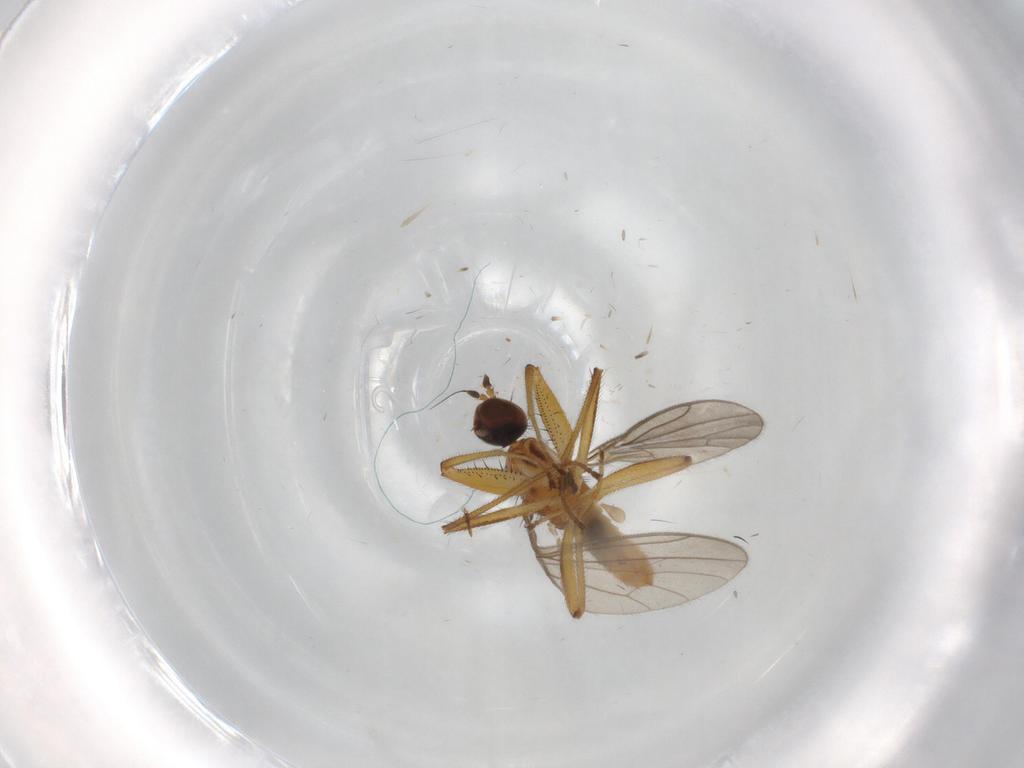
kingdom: Animalia
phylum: Arthropoda
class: Insecta
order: Diptera
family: Empididae
